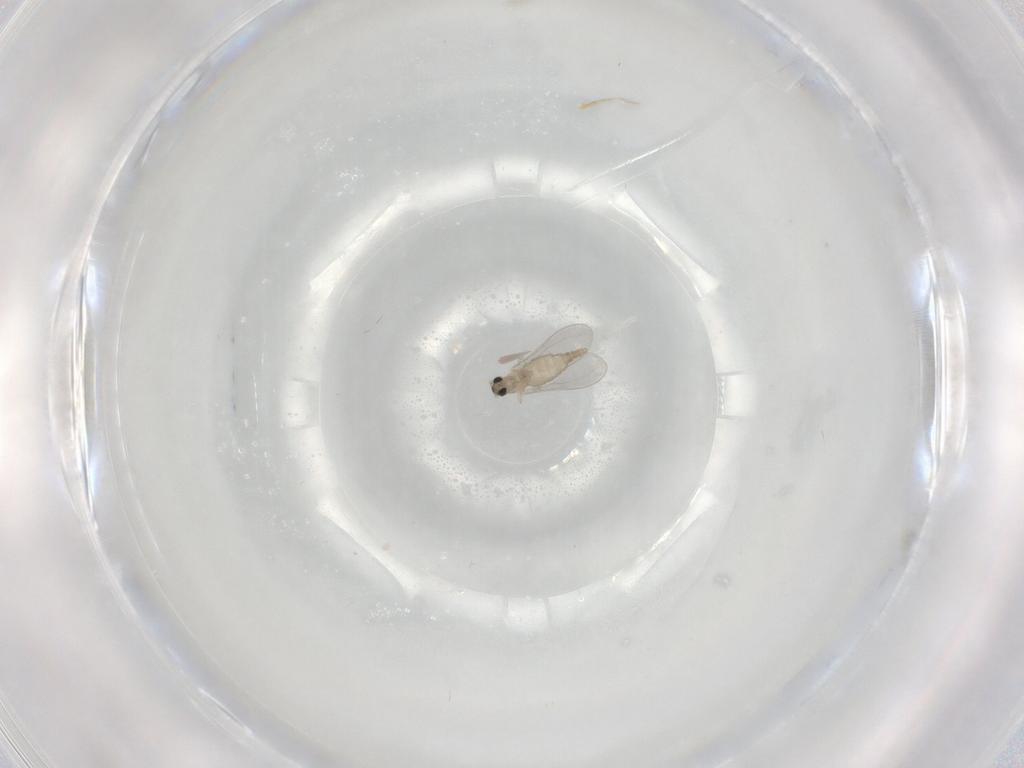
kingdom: Animalia
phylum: Arthropoda
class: Insecta
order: Diptera
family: Cecidomyiidae
